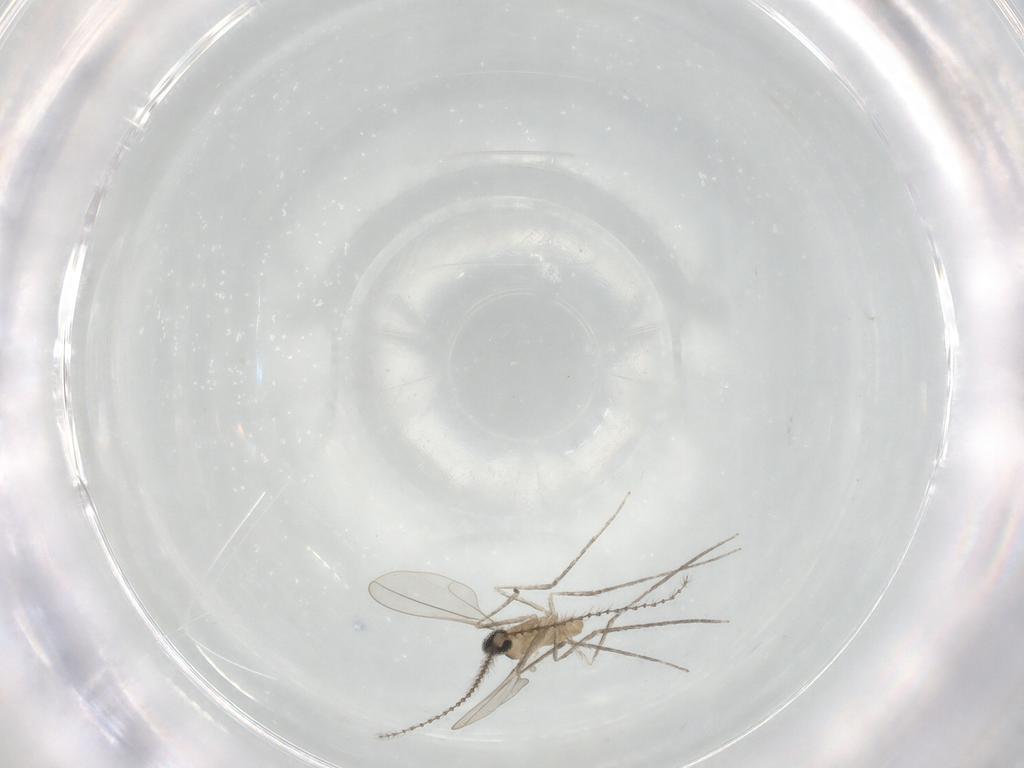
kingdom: Animalia
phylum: Arthropoda
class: Insecta
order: Diptera
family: Cecidomyiidae
